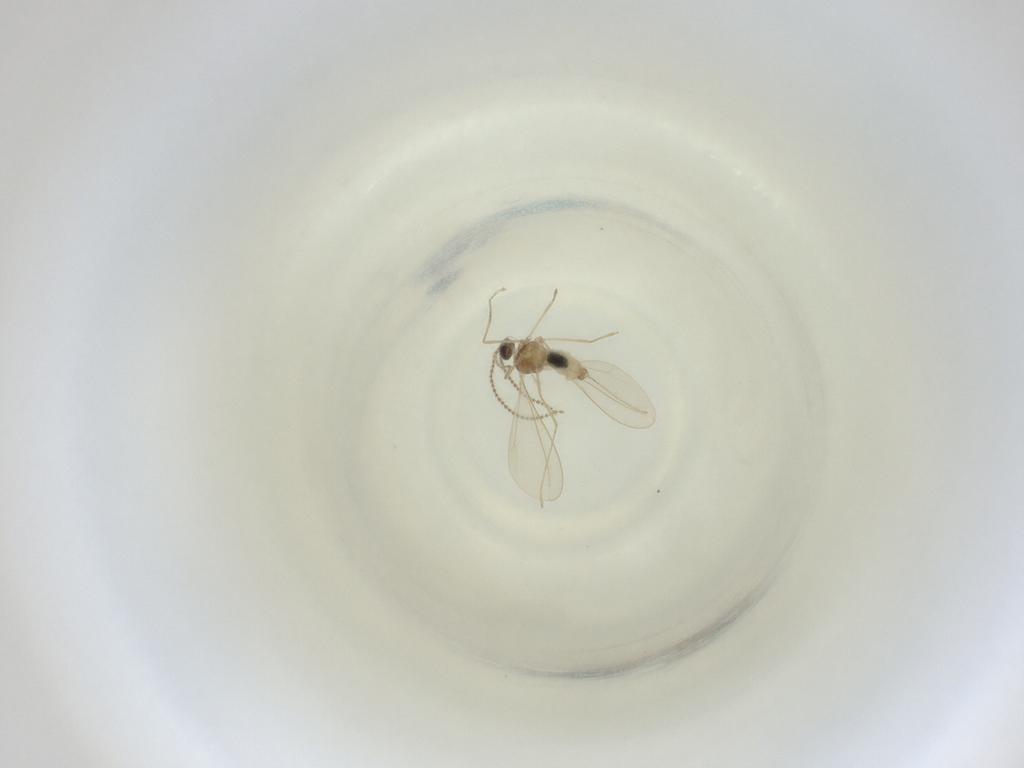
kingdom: Animalia
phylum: Arthropoda
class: Insecta
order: Diptera
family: Cecidomyiidae
